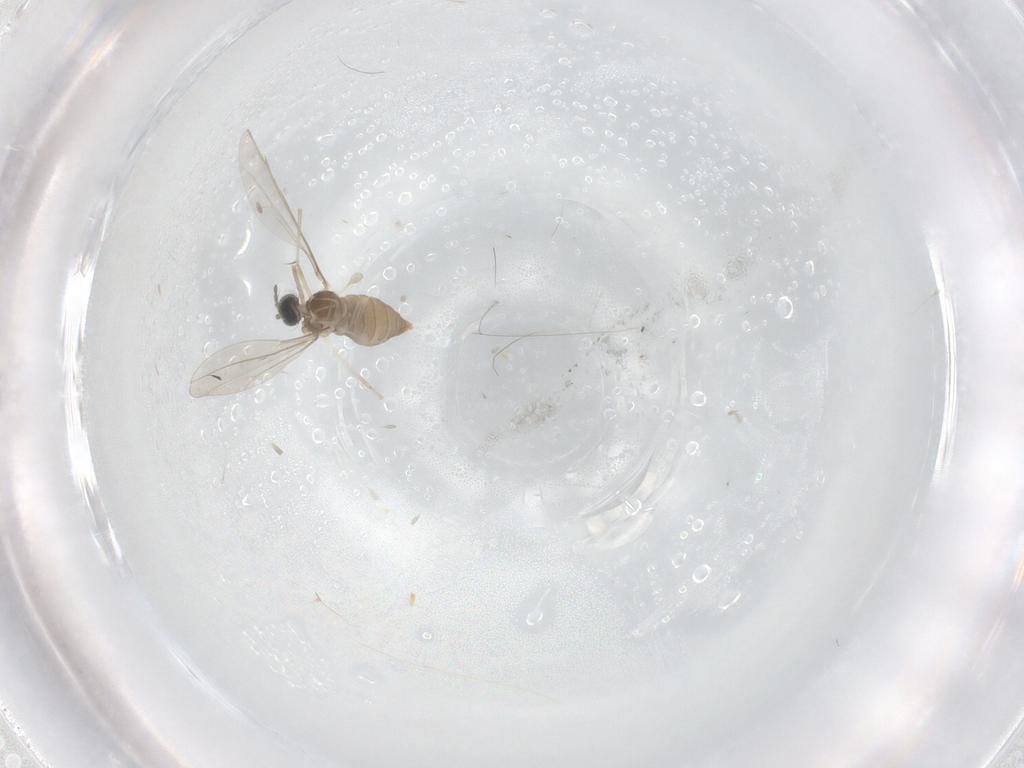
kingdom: Animalia
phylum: Arthropoda
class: Insecta
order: Diptera
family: Cecidomyiidae
